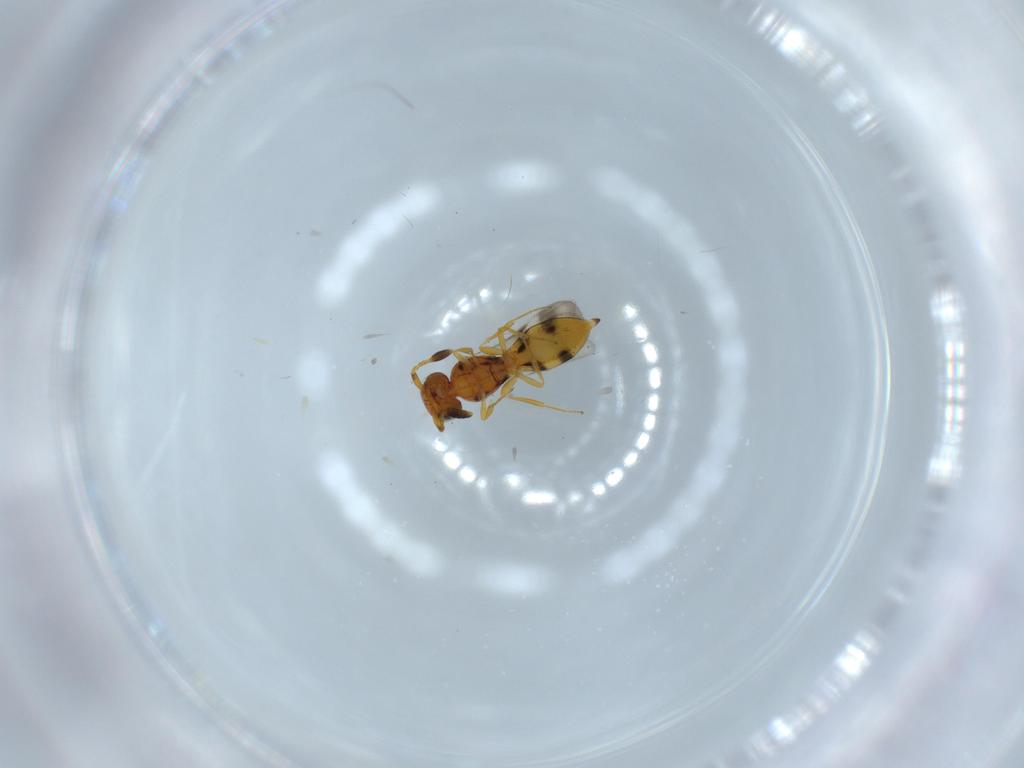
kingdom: Animalia
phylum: Arthropoda
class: Insecta
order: Hymenoptera
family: Scelionidae
